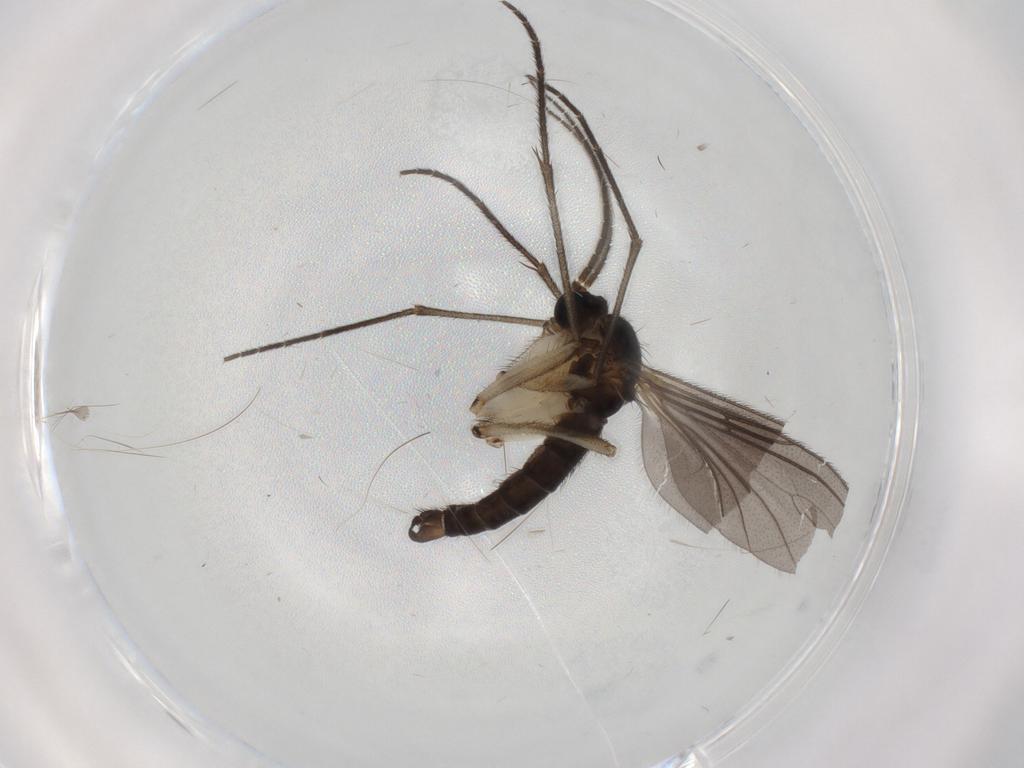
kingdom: Animalia
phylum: Arthropoda
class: Insecta
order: Diptera
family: Sciaridae
